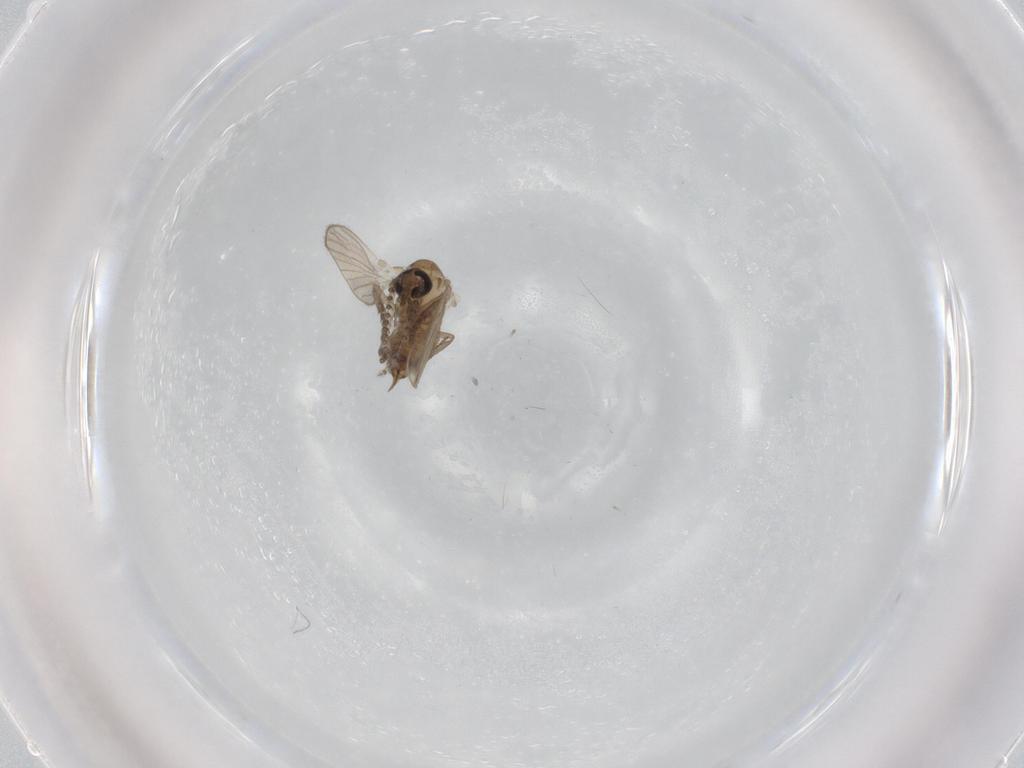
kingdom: Animalia
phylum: Arthropoda
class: Insecta
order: Diptera
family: Psychodidae
